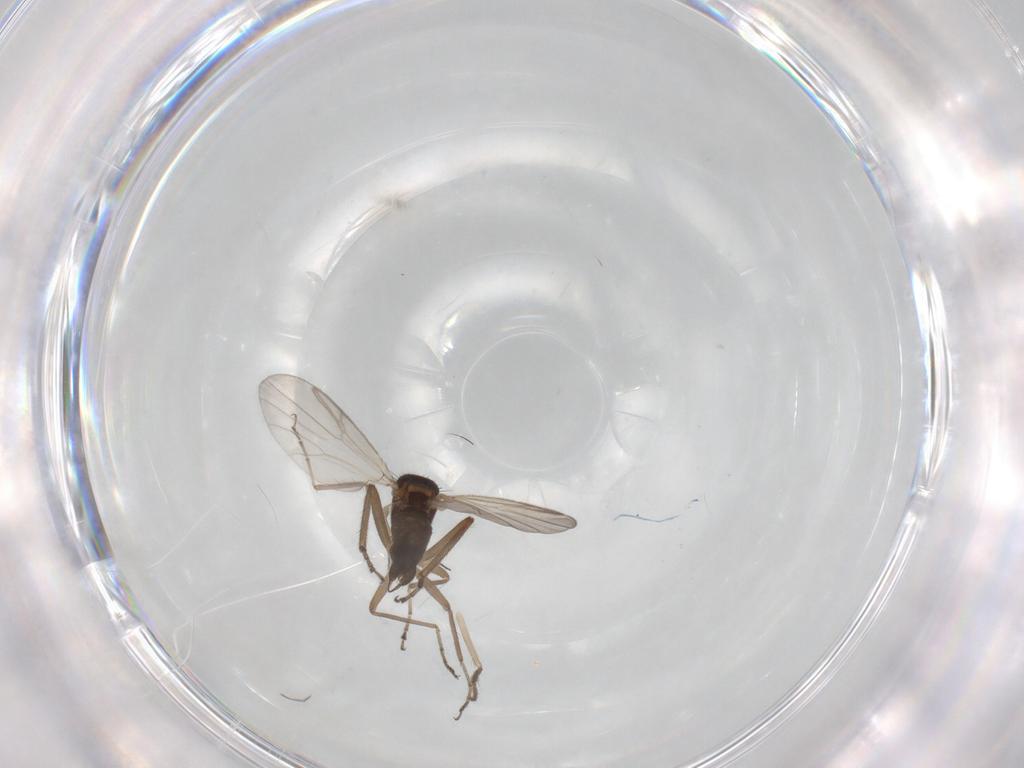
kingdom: Animalia
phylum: Arthropoda
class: Insecta
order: Diptera
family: Ceratopogonidae
